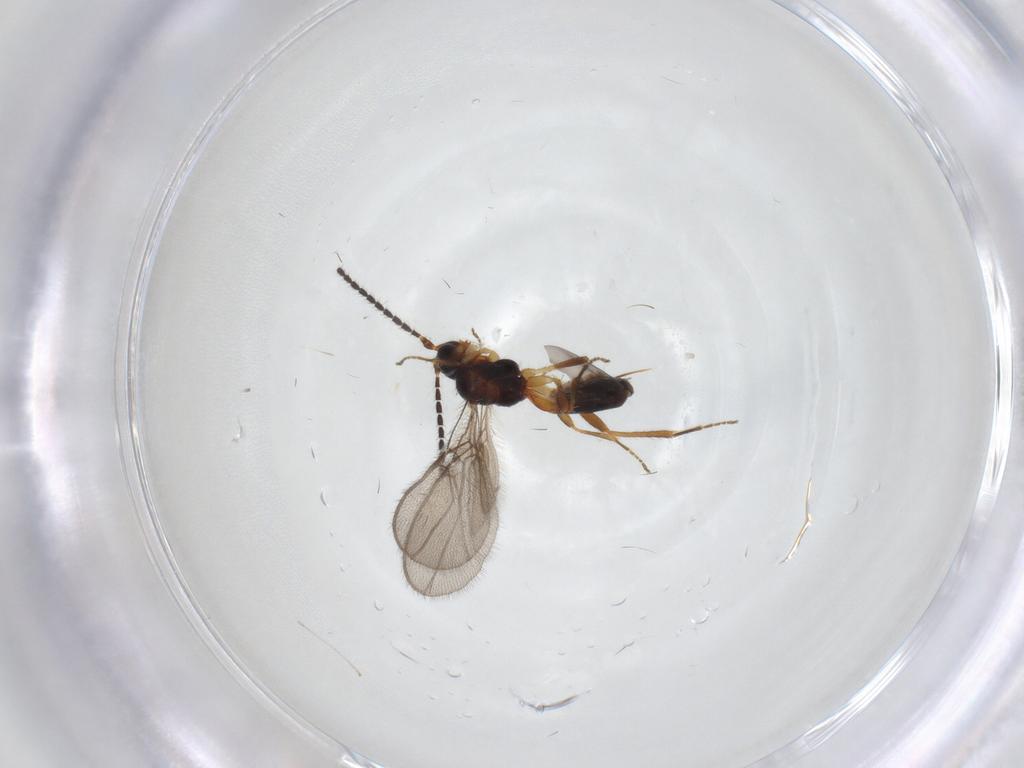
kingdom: Animalia
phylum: Arthropoda
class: Insecta
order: Hymenoptera
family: Braconidae
